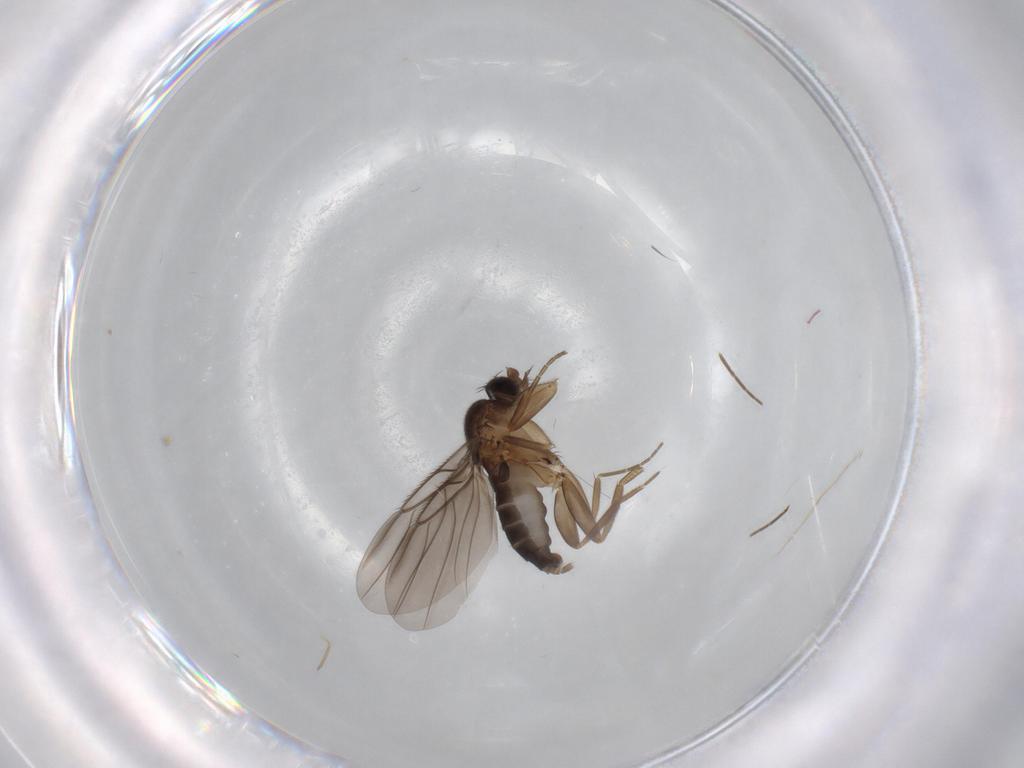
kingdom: Animalia
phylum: Arthropoda
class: Insecta
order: Diptera
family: Phoridae
